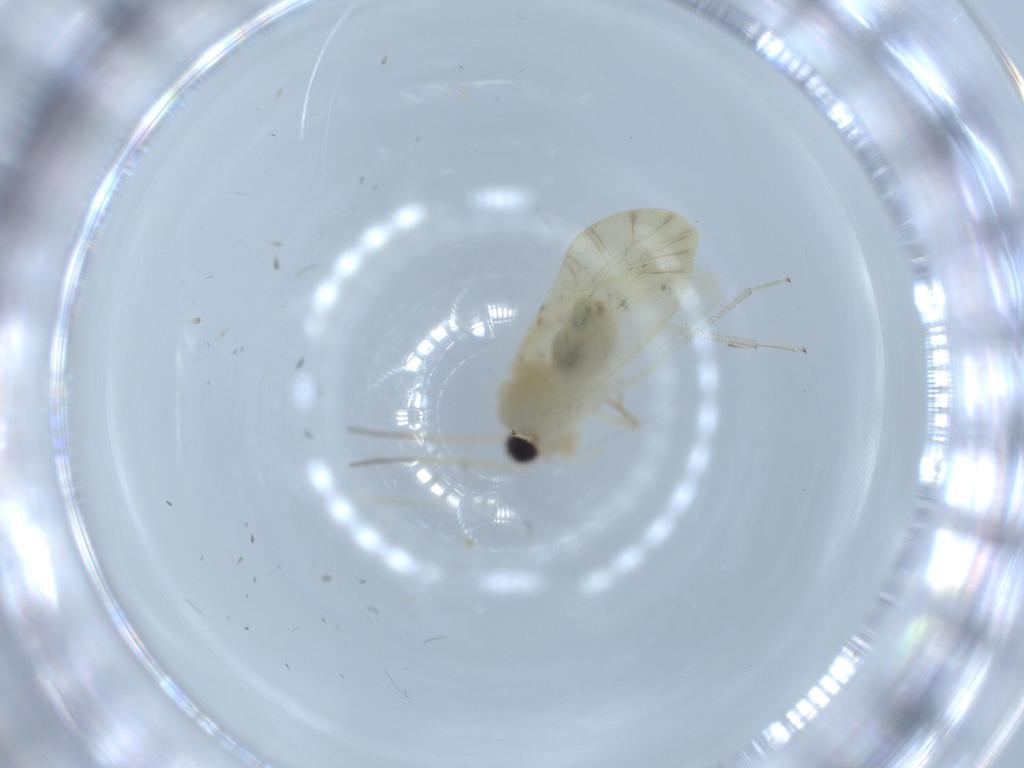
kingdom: Animalia
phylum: Arthropoda
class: Insecta
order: Psocodea
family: Caeciliusidae
